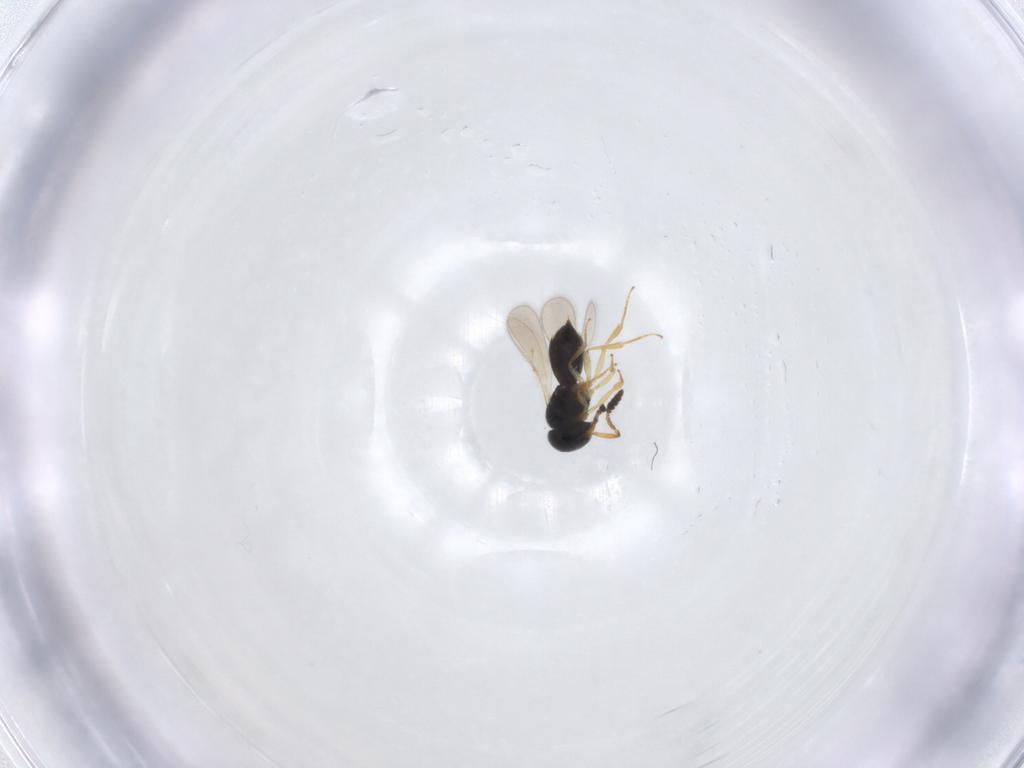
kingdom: Animalia
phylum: Arthropoda
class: Insecta
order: Hymenoptera
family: Scelionidae
